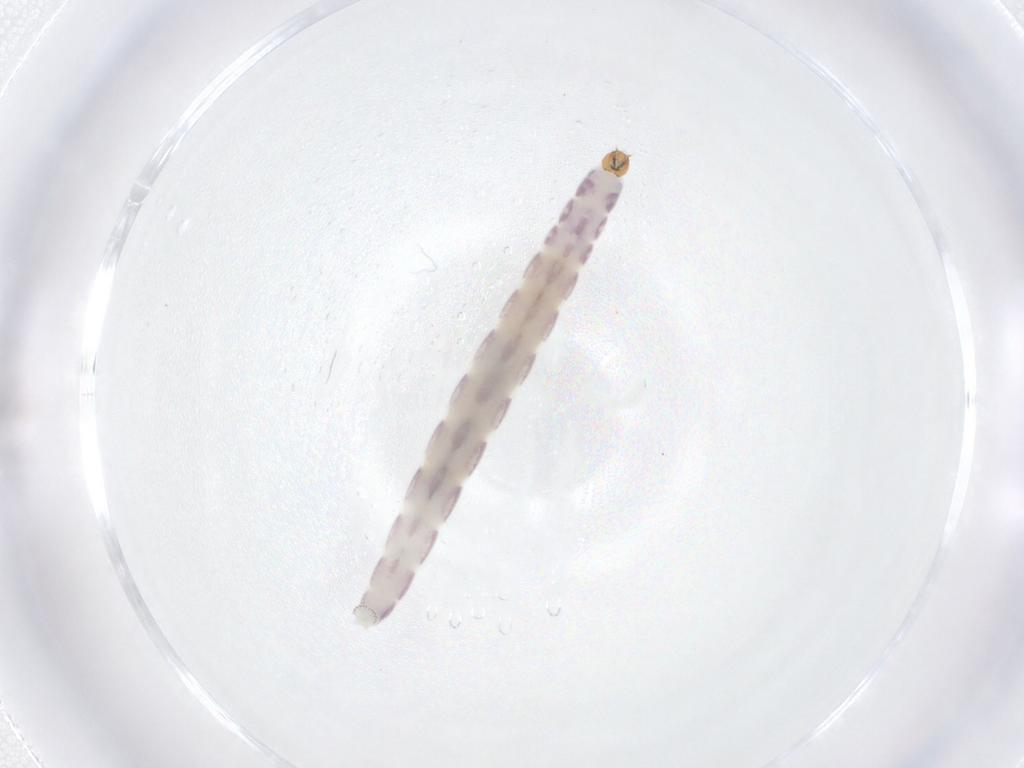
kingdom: Animalia
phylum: Arthropoda
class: Insecta
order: Diptera
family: Chironomidae
